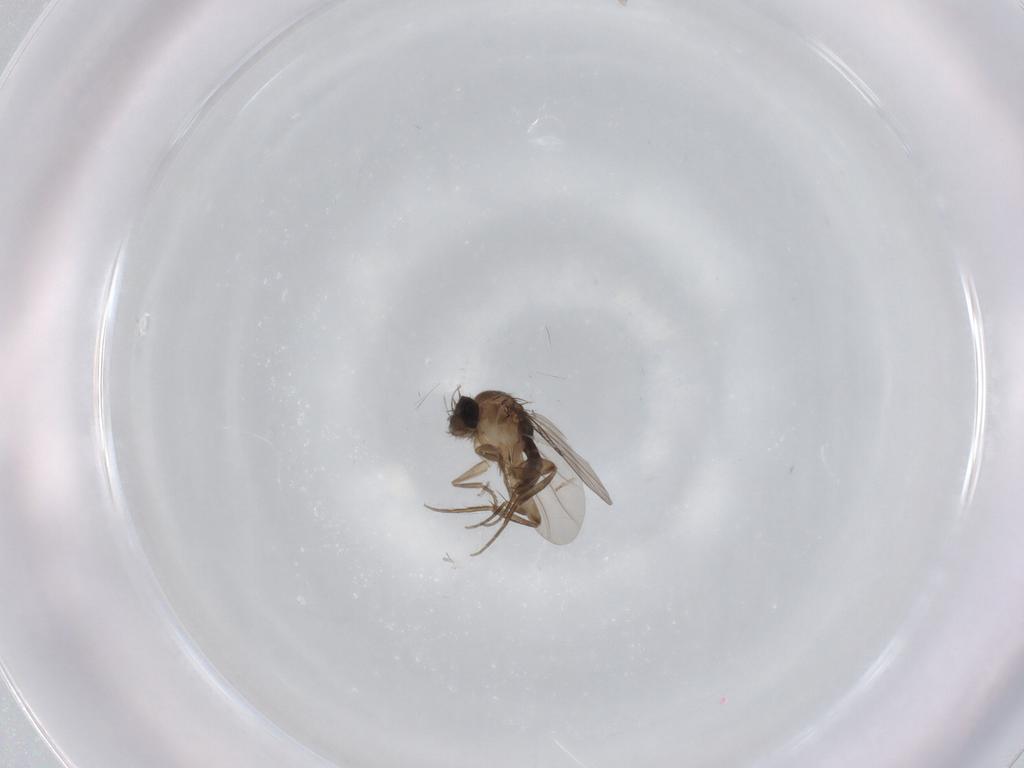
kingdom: Animalia
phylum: Arthropoda
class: Insecta
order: Diptera
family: Phoridae
